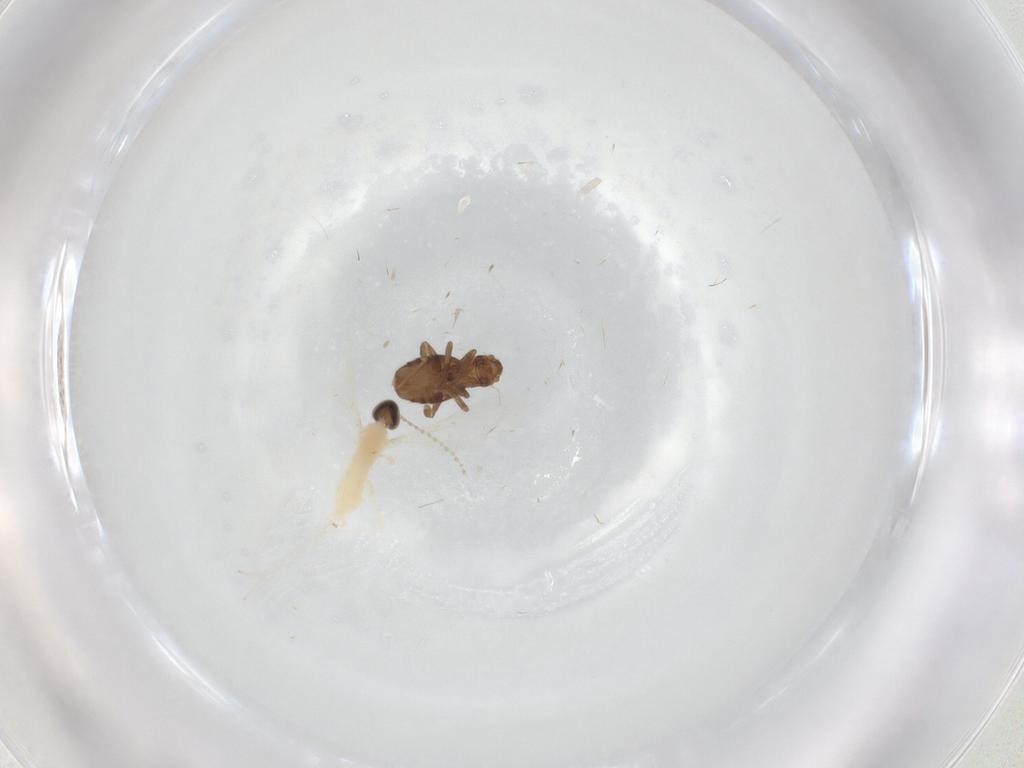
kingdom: Animalia
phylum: Arthropoda
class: Insecta
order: Diptera
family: Cecidomyiidae
